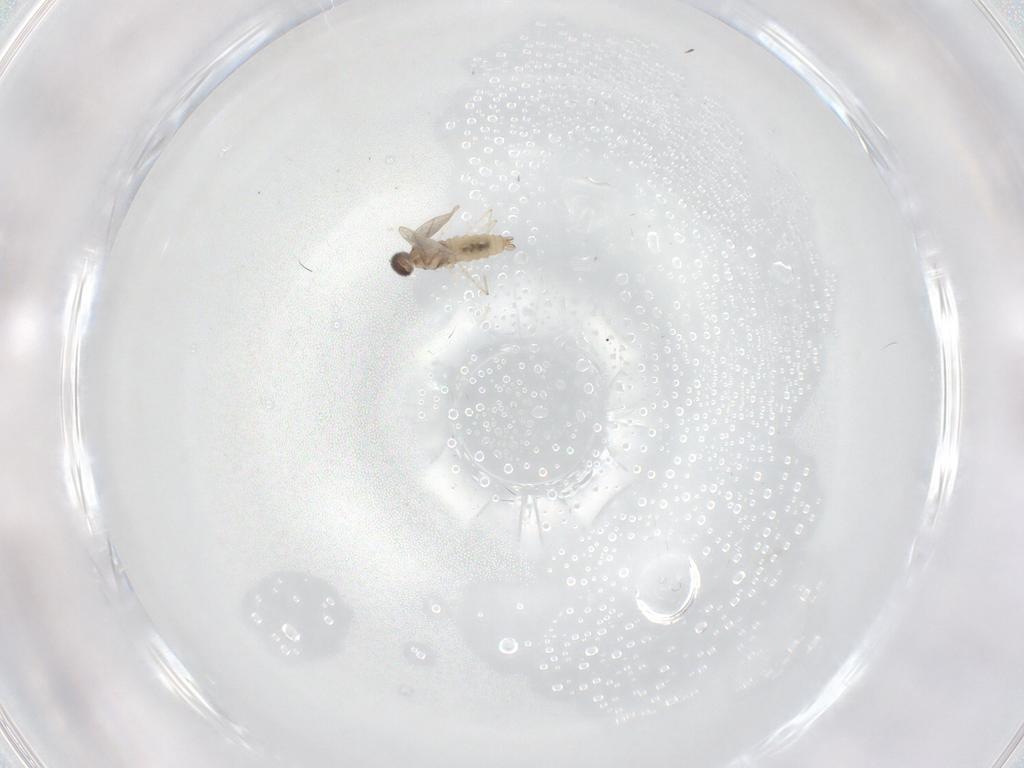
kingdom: Animalia
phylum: Arthropoda
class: Insecta
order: Diptera
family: Cecidomyiidae
